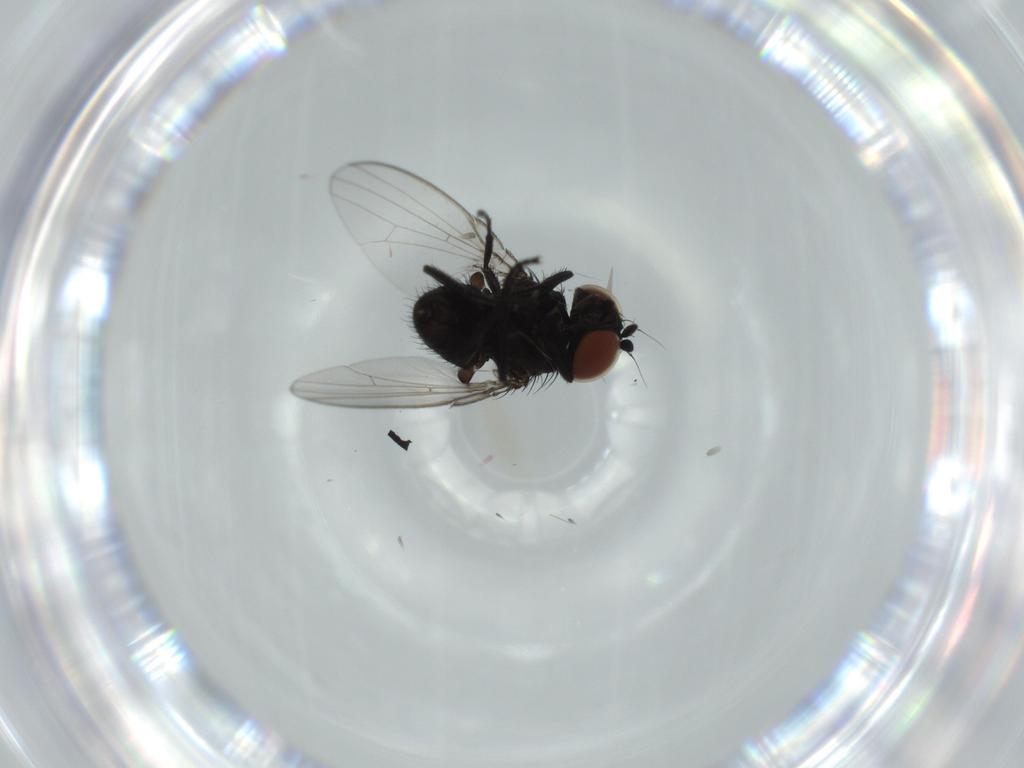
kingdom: Animalia
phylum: Arthropoda
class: Insecta
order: Diptera
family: Milichiidae
